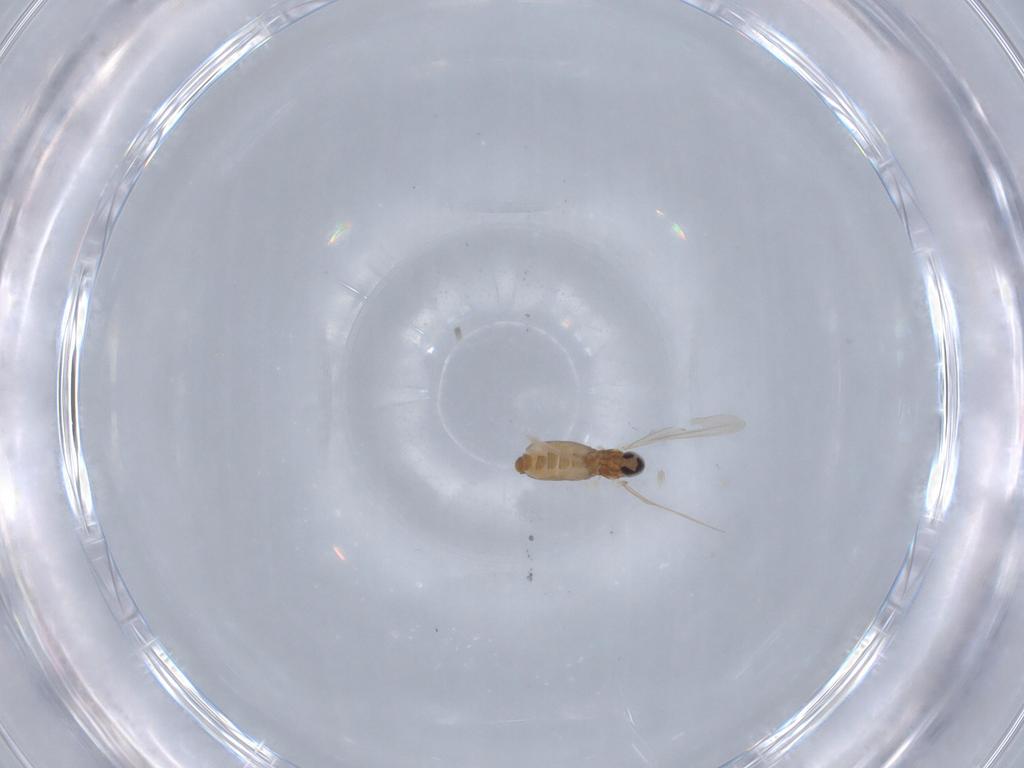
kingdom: Animalia
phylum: Arthropoda
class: Insecta
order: Diptera
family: Cecidomyiidae
